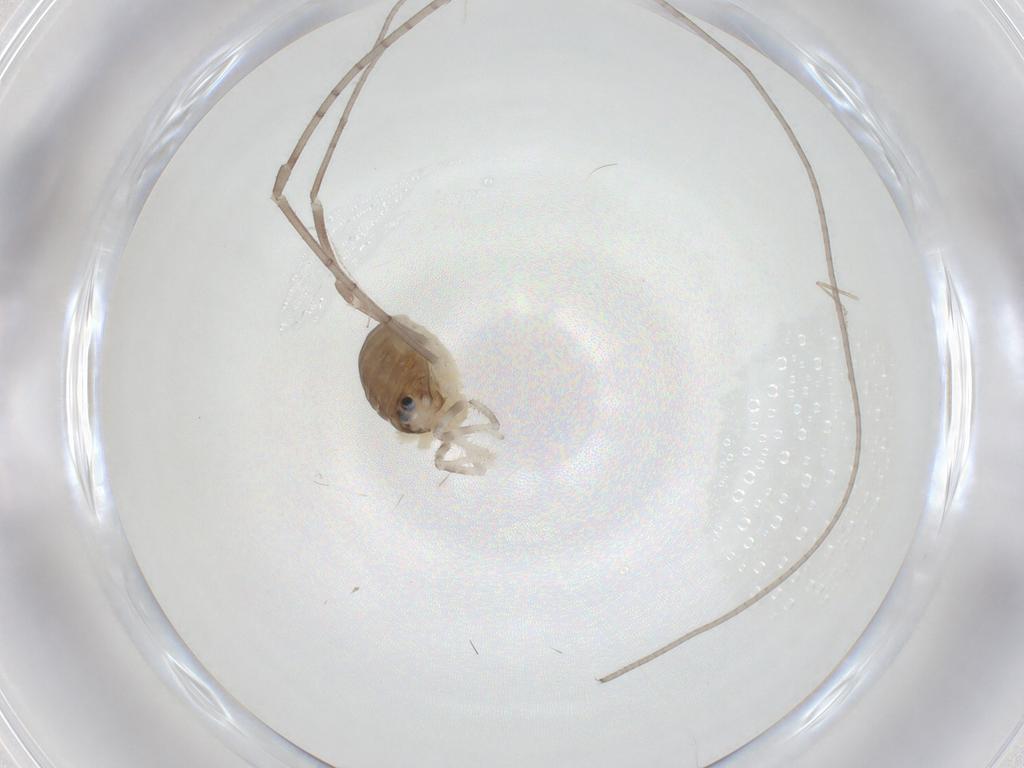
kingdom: Animalia
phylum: Arthropoda
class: Arachnida
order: Opiliones
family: Sclerosomatidae
